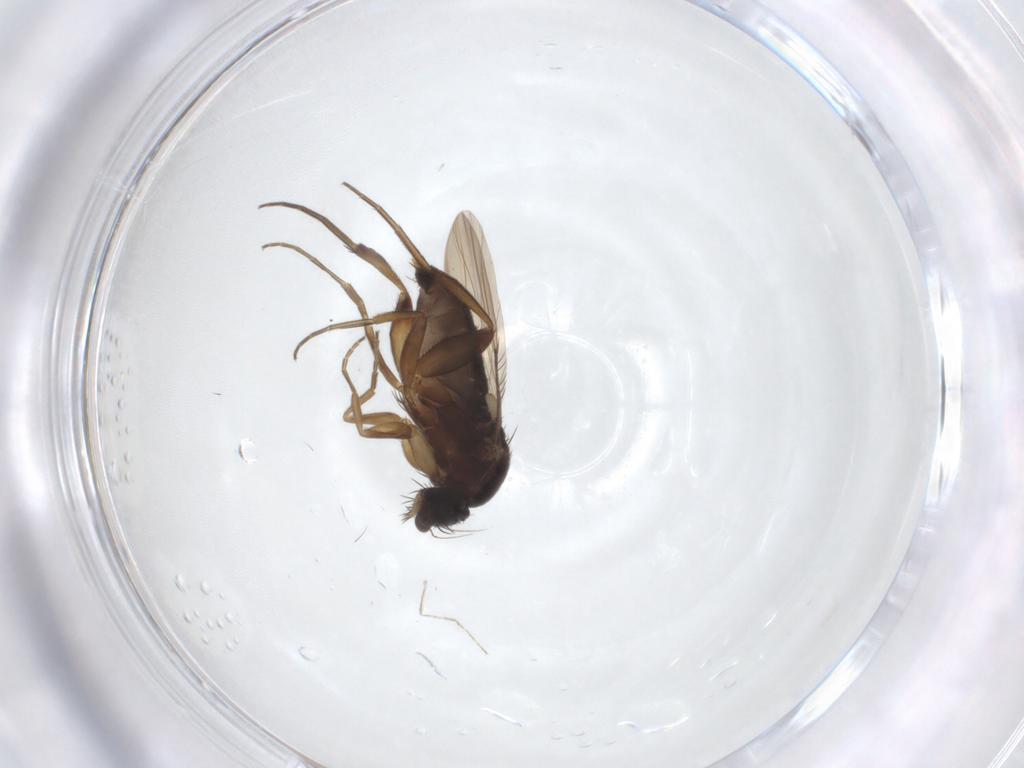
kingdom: Animalia
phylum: Arthropoda
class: Insecta
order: Diptera
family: Phoridae
